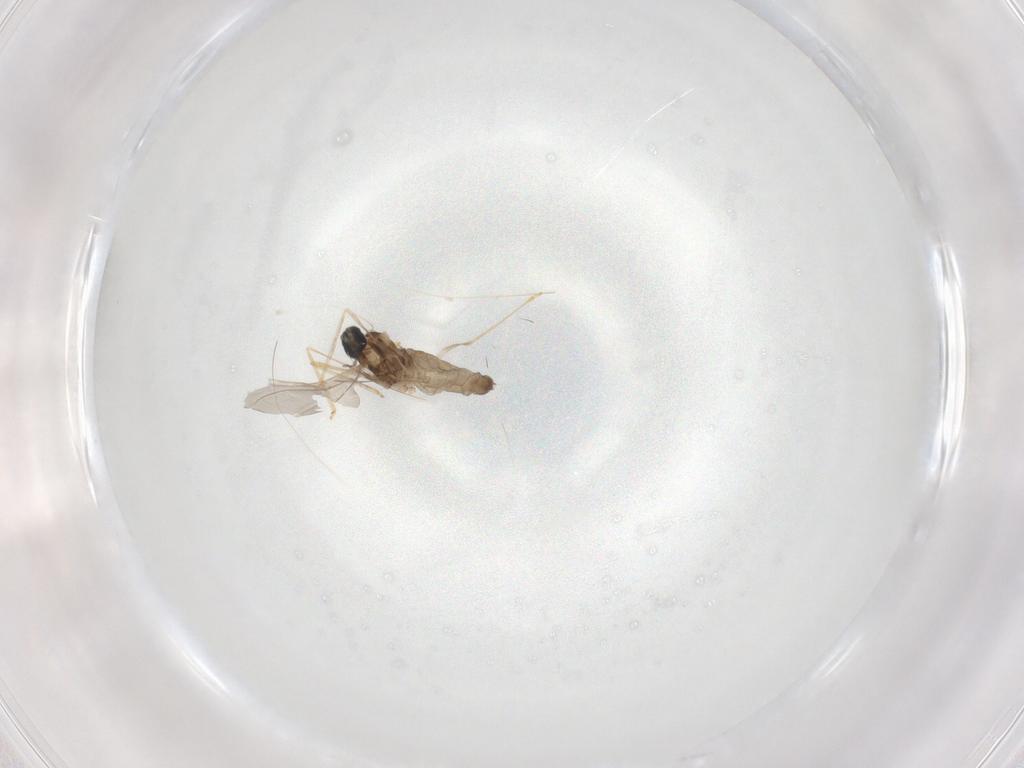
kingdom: Animalia
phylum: Arthropoda
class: Insecta
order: Diptera
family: Cecidomyiidae
